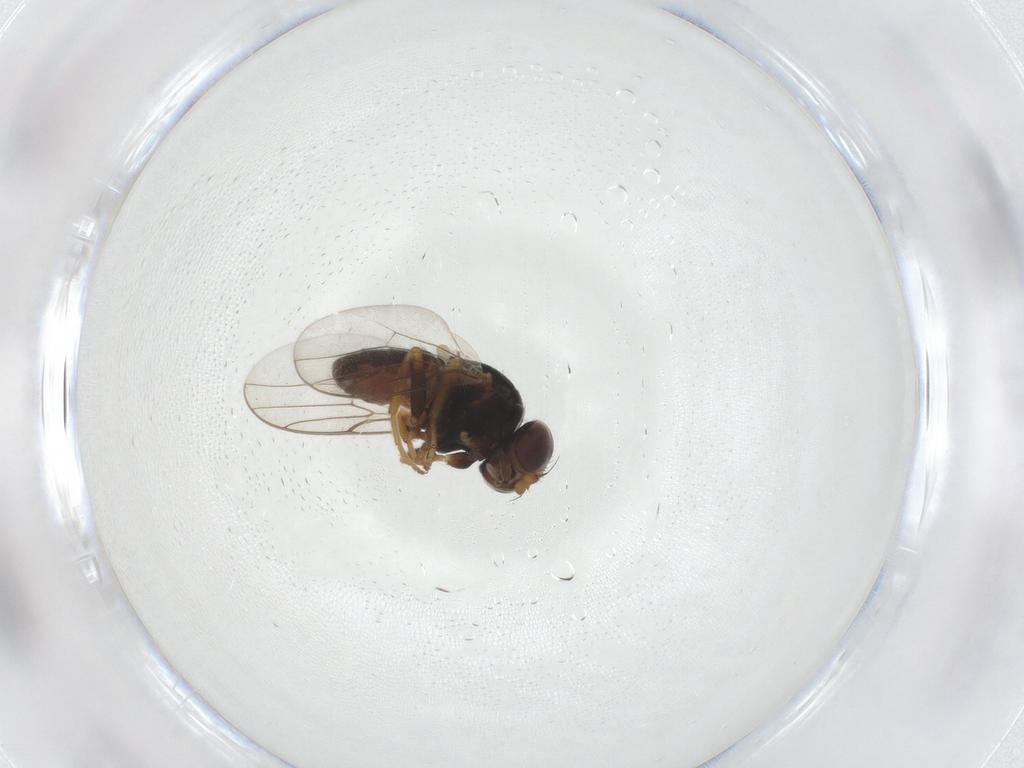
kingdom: Animalia
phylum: Arthropoda
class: Insecta
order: Diptera
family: Chloropidae
